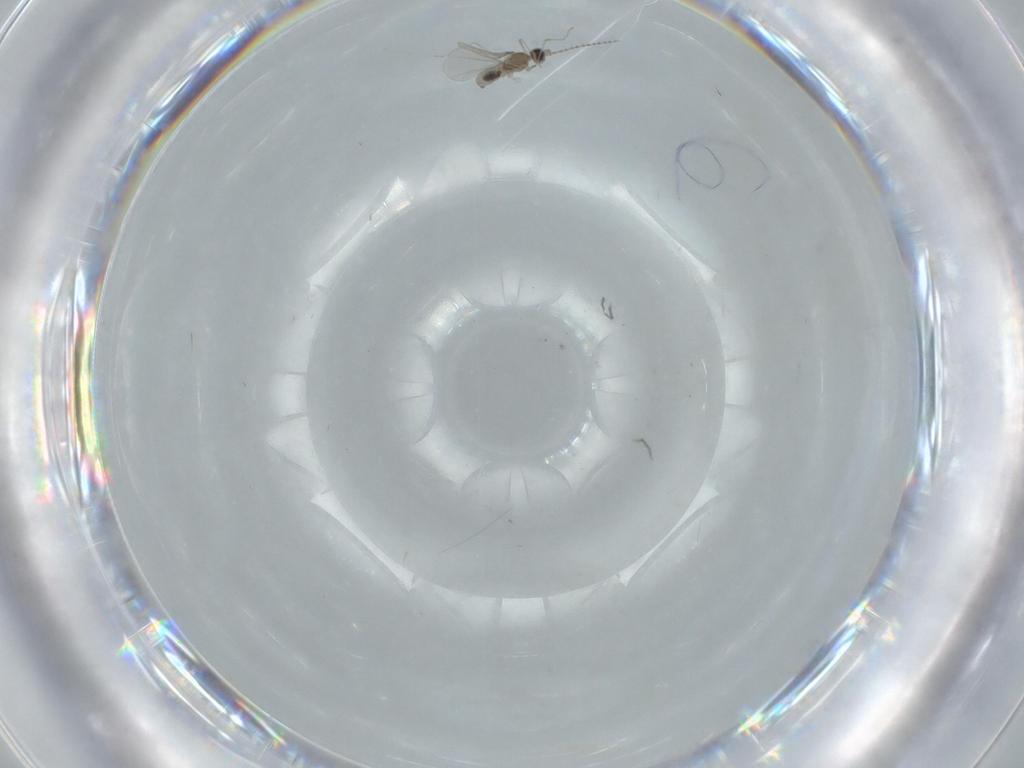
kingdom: Animalia
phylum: Arthropoda
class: Insecta
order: Diptera
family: Cecidomyiidae
